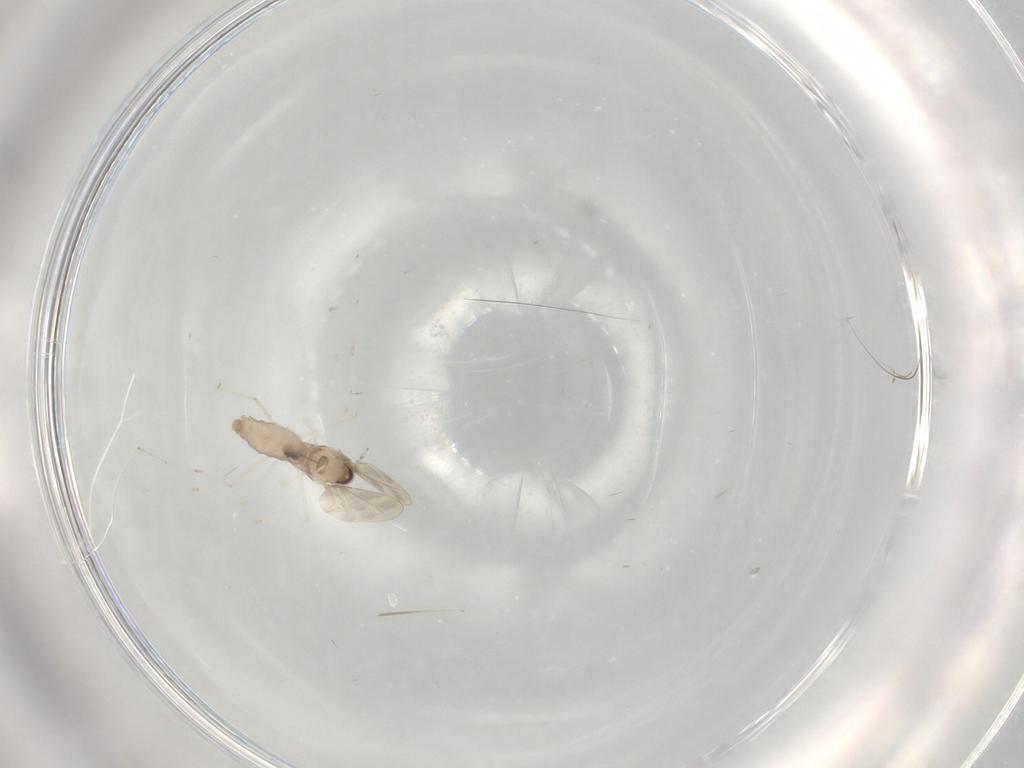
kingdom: Animalia
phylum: Arthropoda
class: Insecta
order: Diptera
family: Cecidomyiidae
